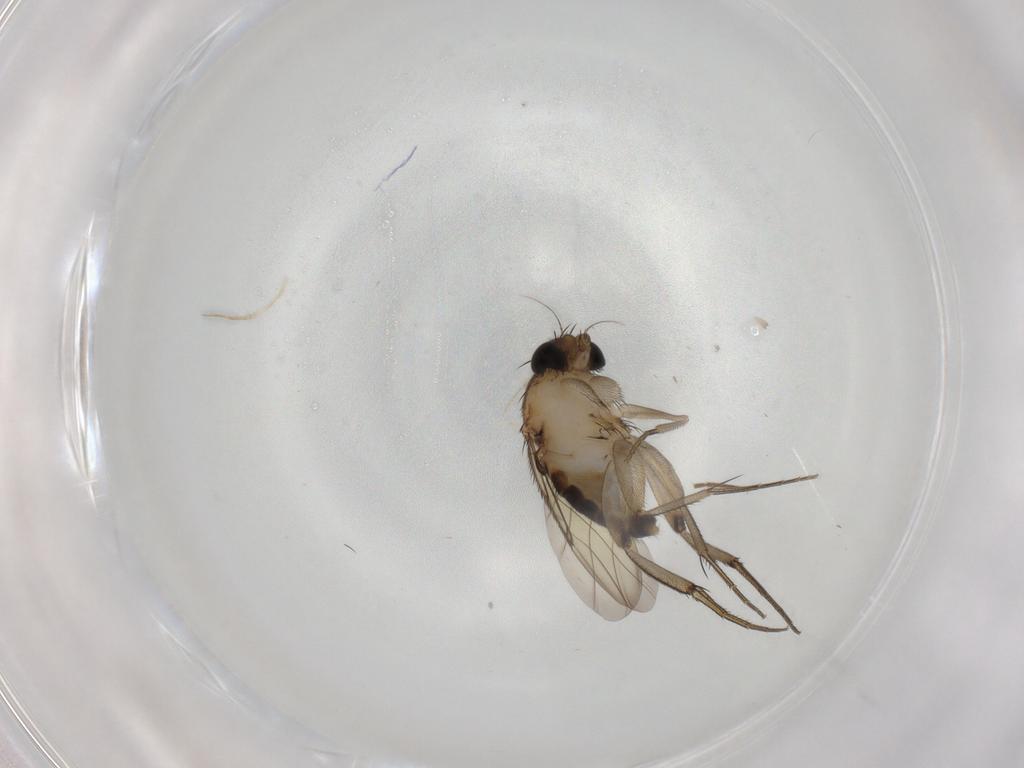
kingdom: Animalia
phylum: Arthropoda
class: Insecta
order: Diptera
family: Phoridae
